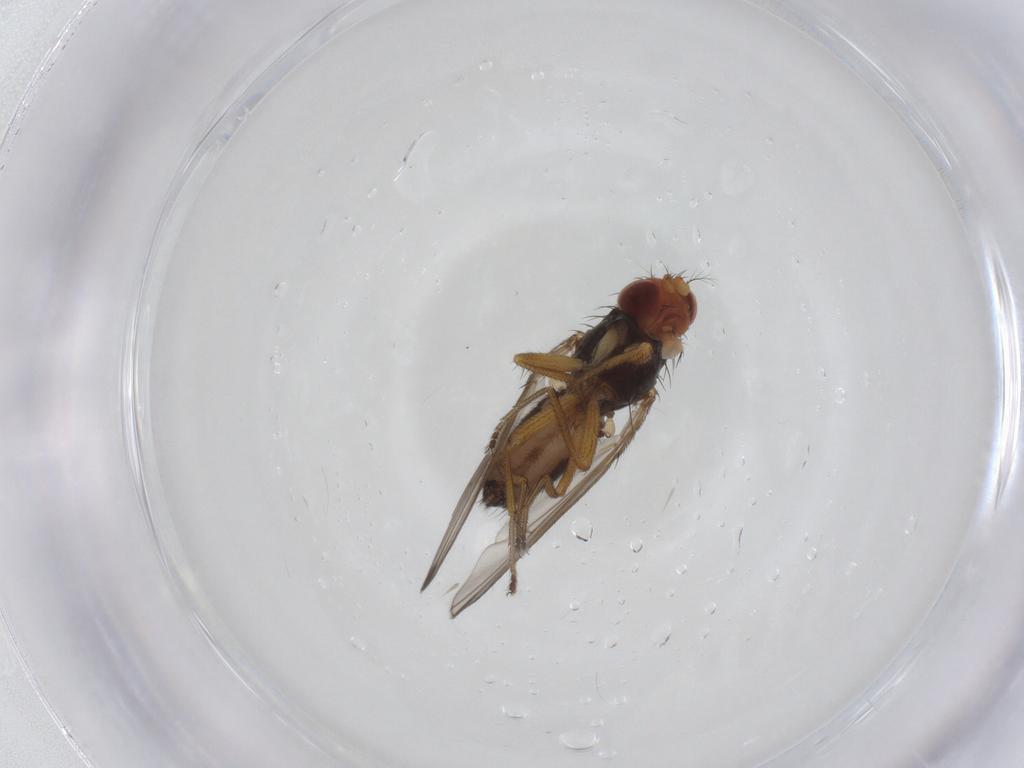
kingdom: Animalia
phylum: Arthropoda
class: Insecta
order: Diptera
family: Drosophilidae
